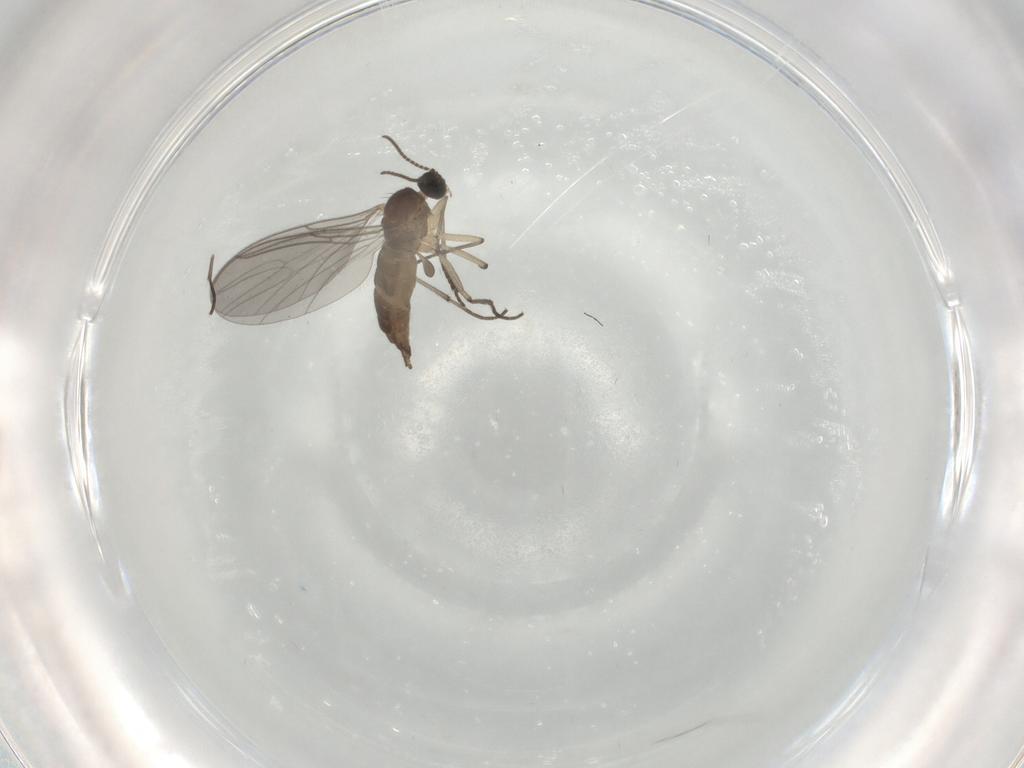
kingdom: Animalia
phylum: Arthropoda
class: Insecta
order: Diptera
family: Sciaridae
